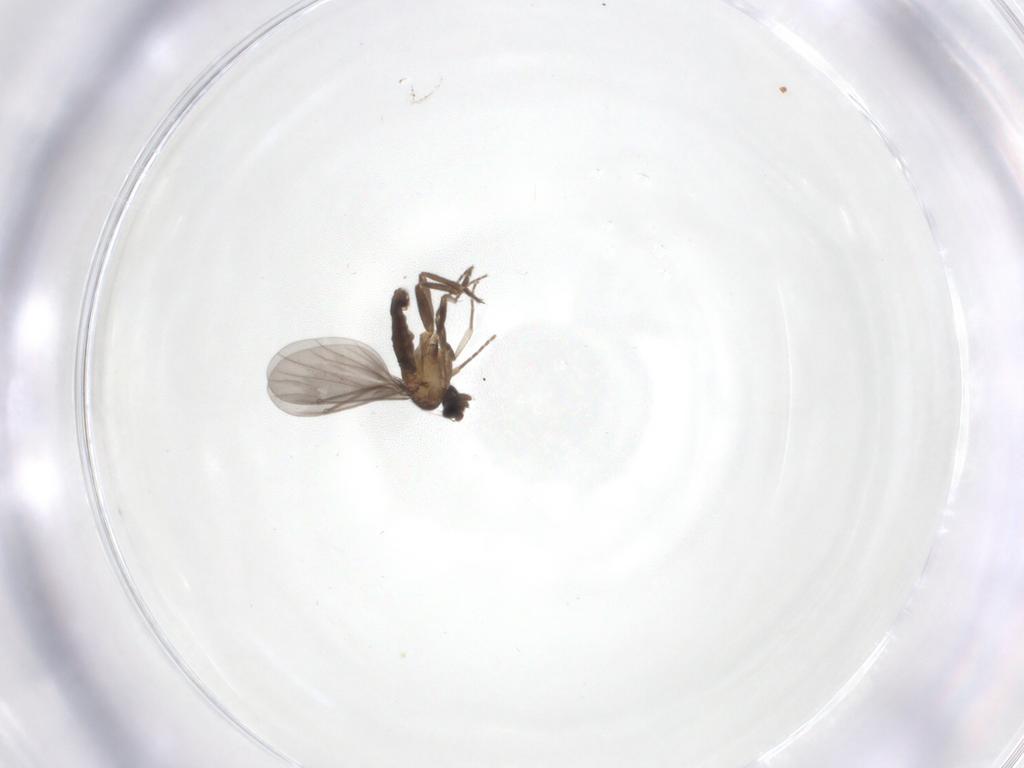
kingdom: Animalia
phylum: Arthropoda
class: Insecta
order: Diptera
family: Phoridae
